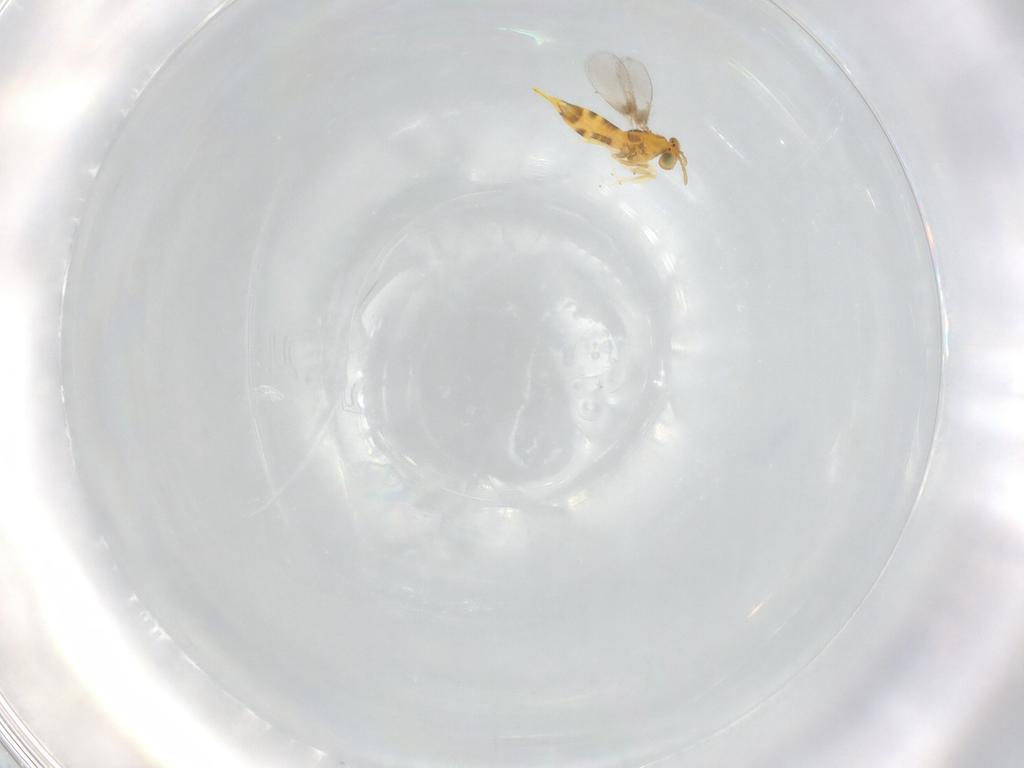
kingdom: Animalia
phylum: Arthropoda
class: Insecta
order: Hymenoptera
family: Aphelinidae
